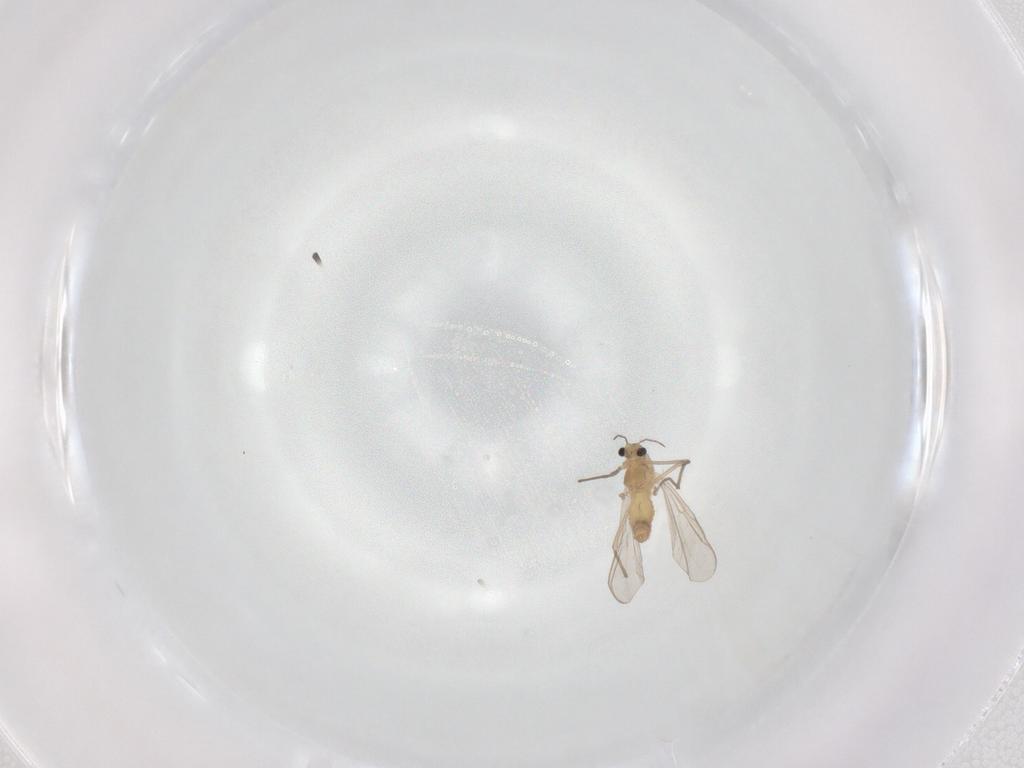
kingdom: Animalia
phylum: Arthropoda
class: Insecta
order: Diptera
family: Chironomidae
